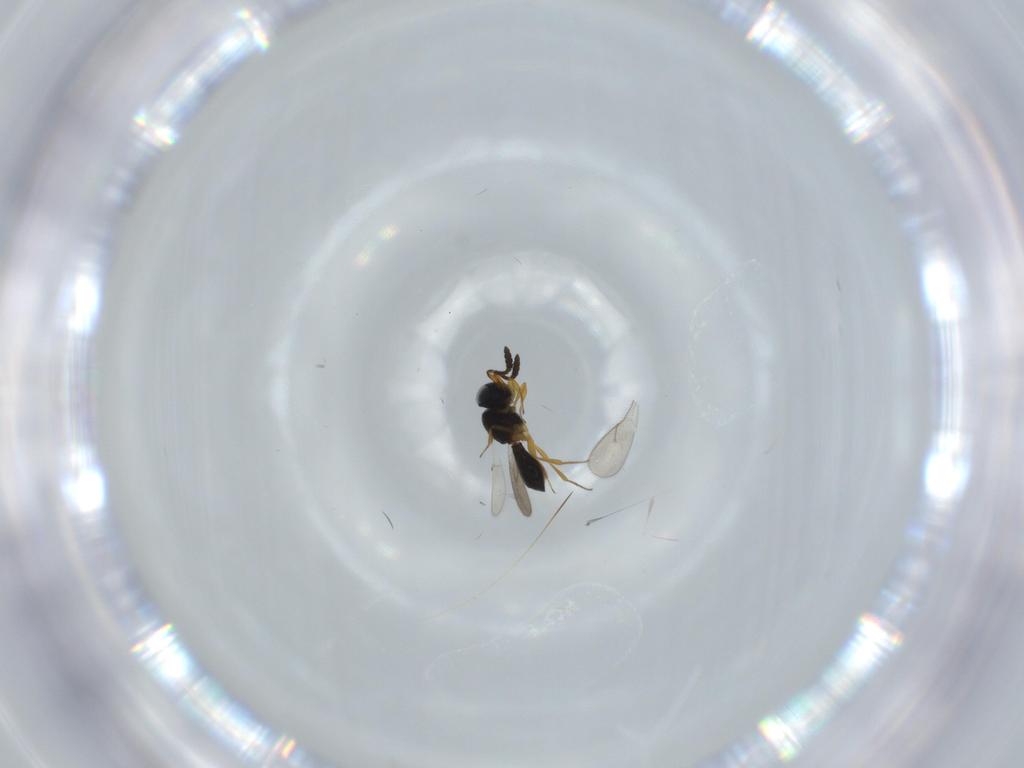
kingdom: Animalia
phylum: Arthropoda
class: Insecta
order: Hymenoptera
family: Scelionidae
